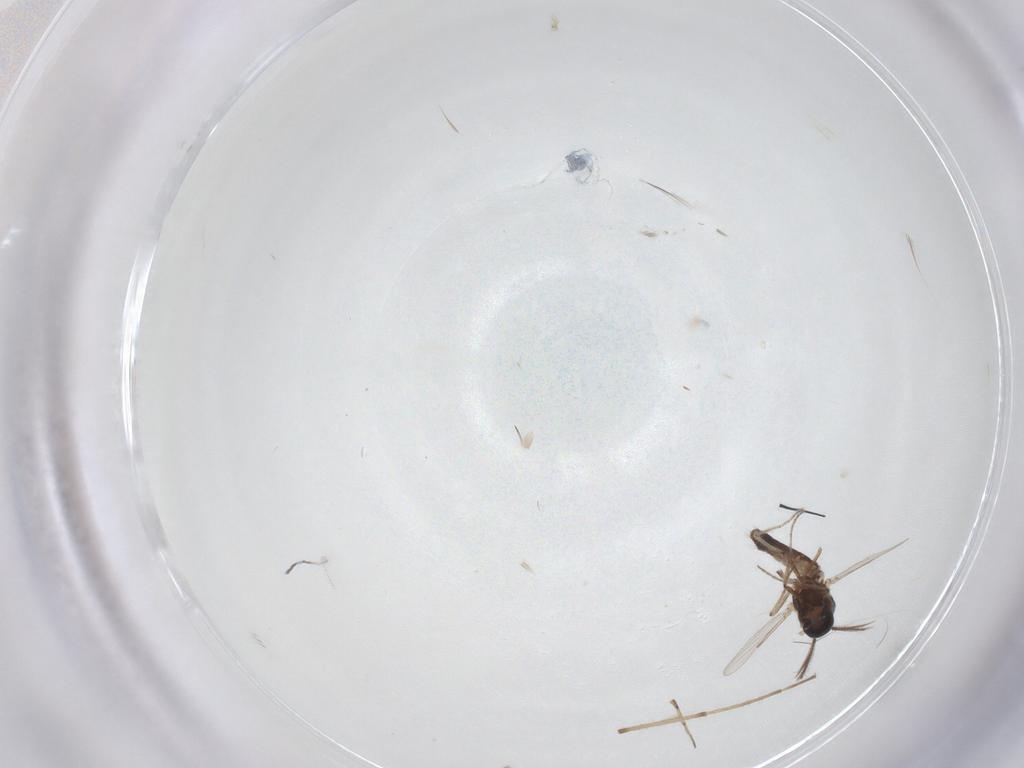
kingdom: Animalia
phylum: Arthropoda
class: Insecta
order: Diptera
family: Chironomidae
